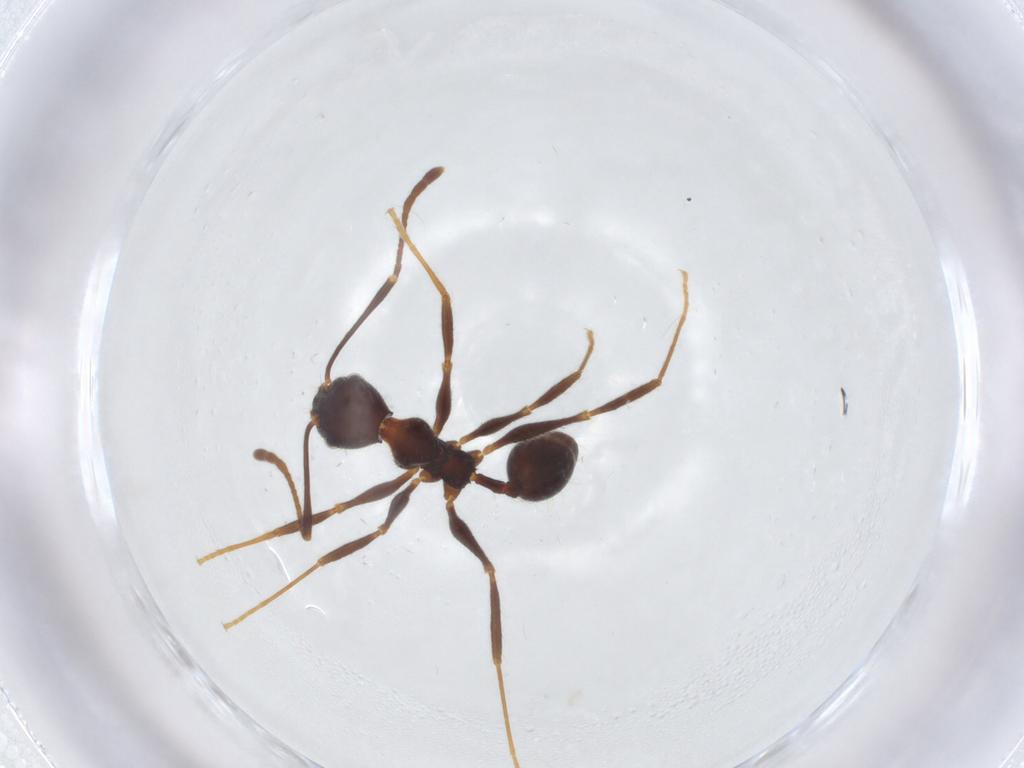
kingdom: Animalia
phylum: Arthropoda
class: Insecta
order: Hymenoptera
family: Formicidae
